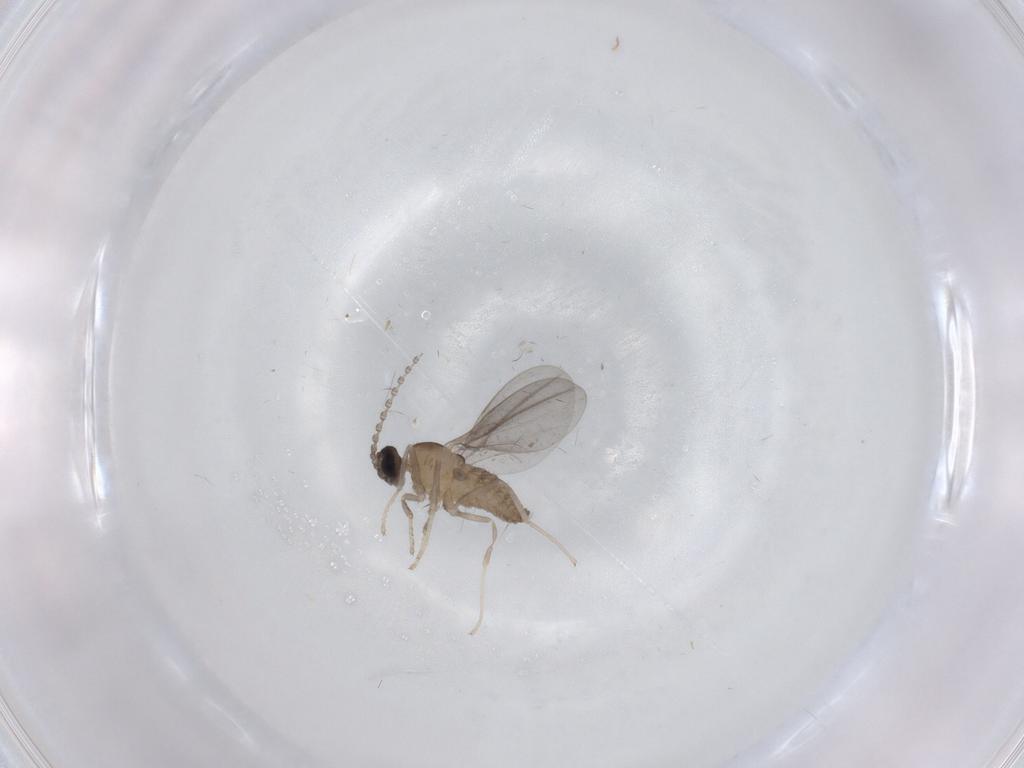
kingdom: Animalia
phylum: Arthropoda
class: Insecta
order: Diptera
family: Cecidomyiidae
